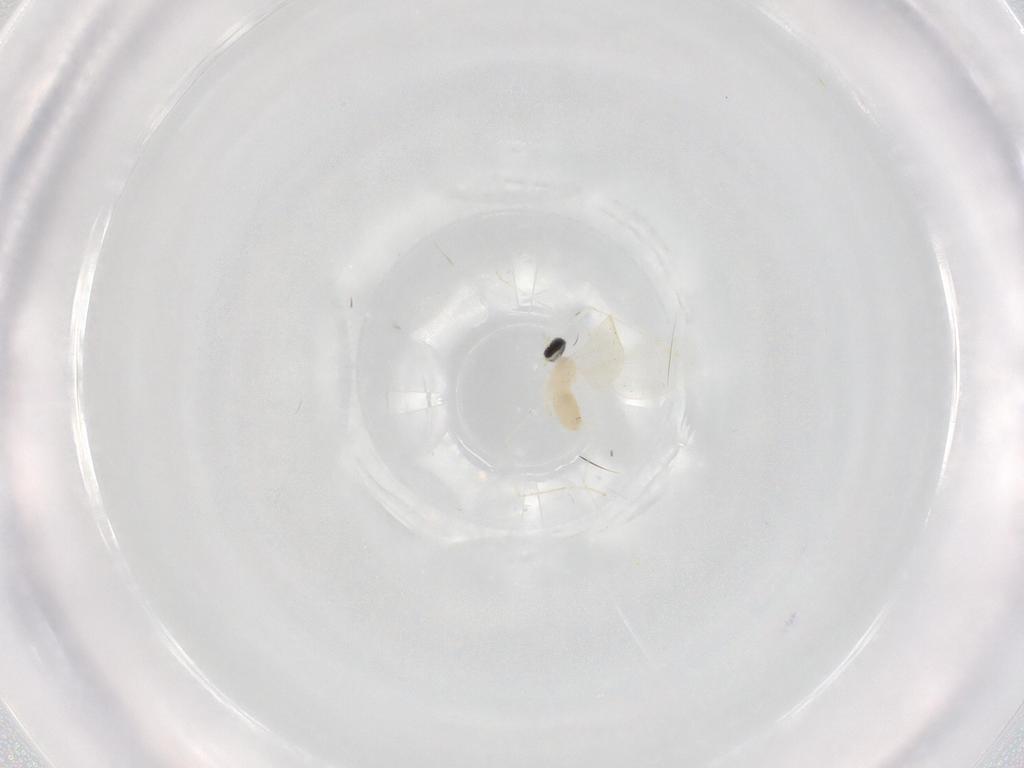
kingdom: Animalia
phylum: Arthropoda
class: Insecta
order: Diptera
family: Cecidomyiidae
